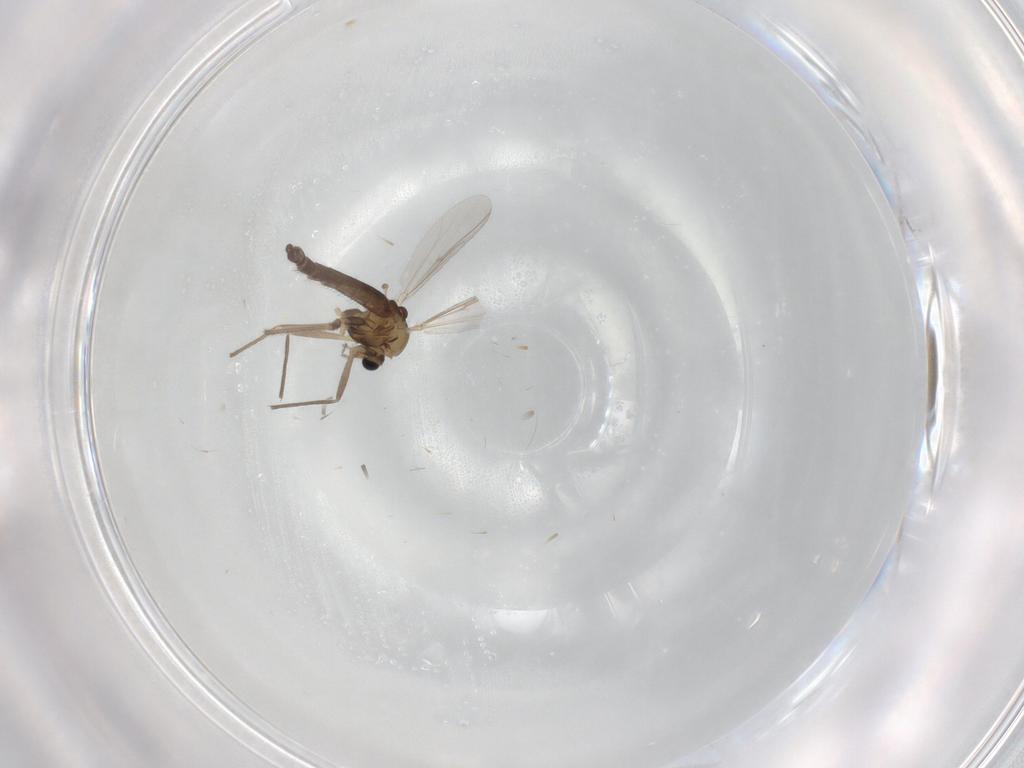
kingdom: Animalia
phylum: Arthropoda
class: Insecta
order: Diptera
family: Chironomidae
